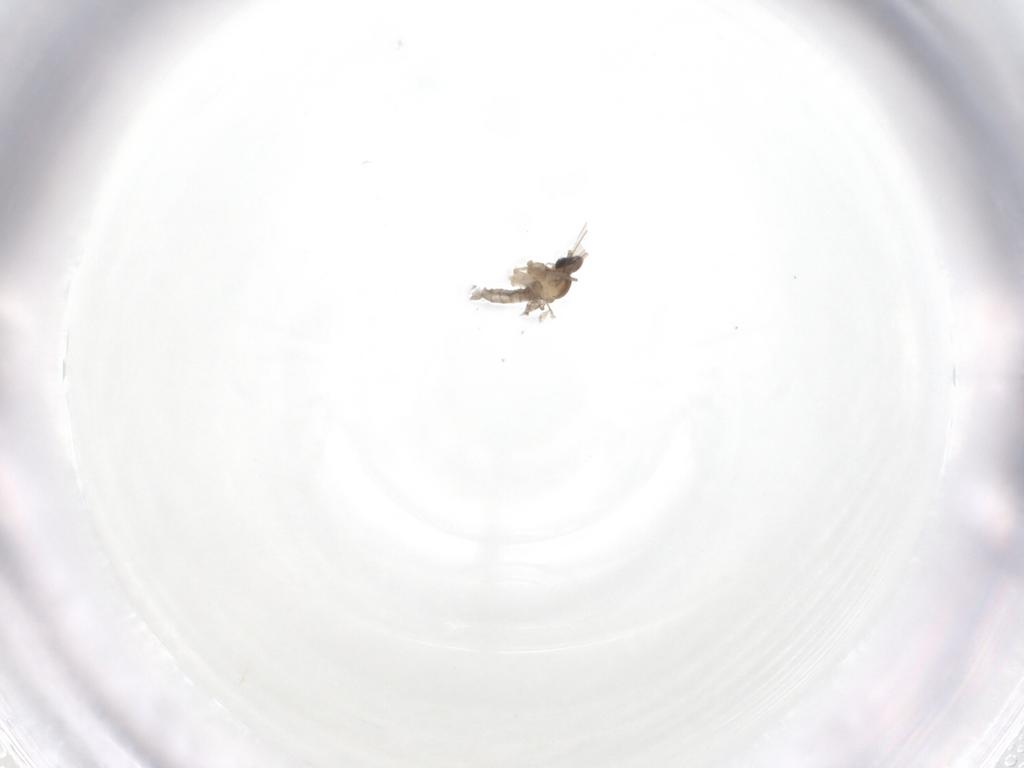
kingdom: Animalia
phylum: Arthropoda
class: Insecta
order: Diptera
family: Cecidomyiidae
